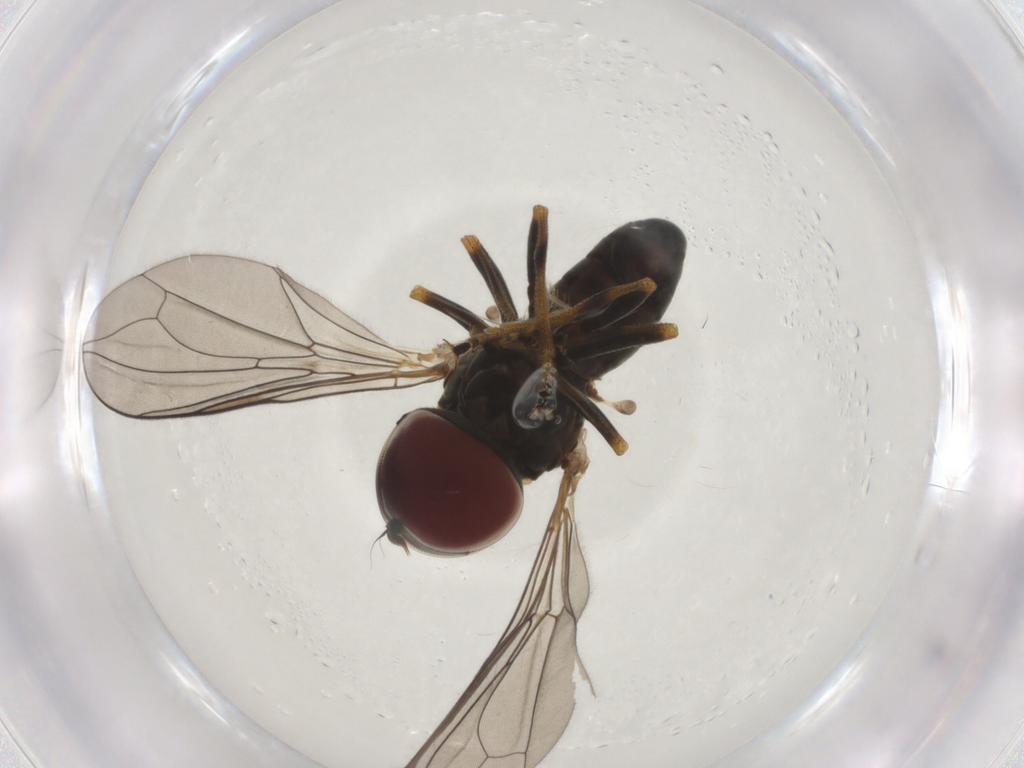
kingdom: Animalia
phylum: Arthropoda
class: Insecta
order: Diptera
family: Pipunculidae
